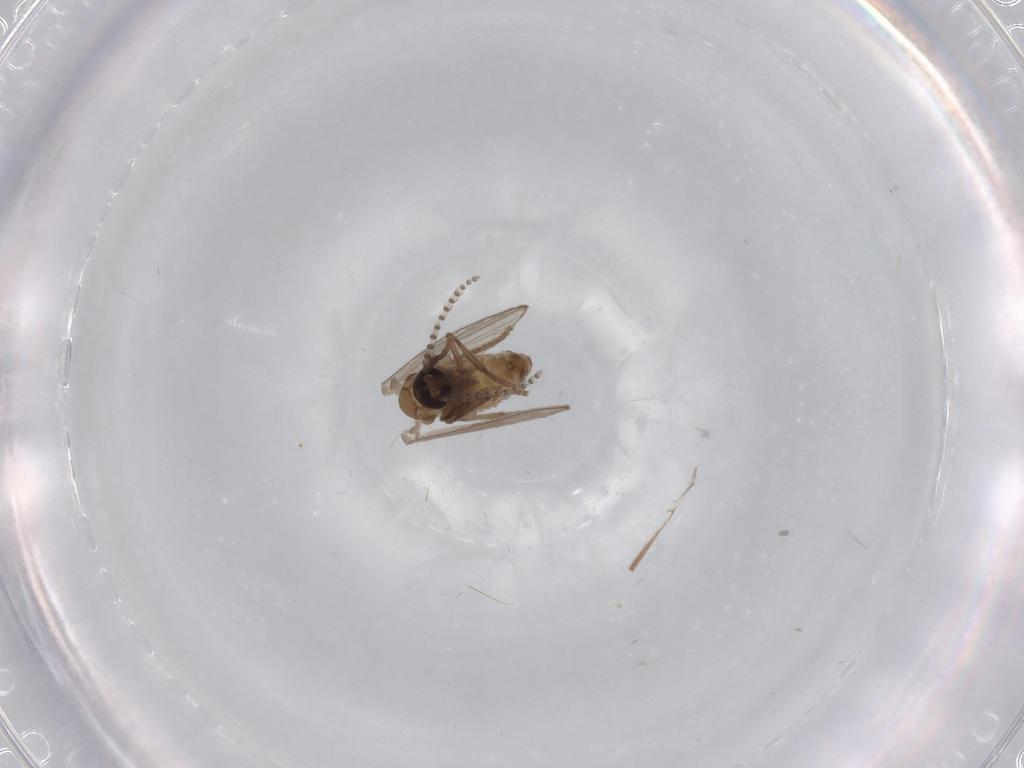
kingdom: Animalia
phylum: Arthropoda
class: Insecta
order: Diptera
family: Psychodidae
